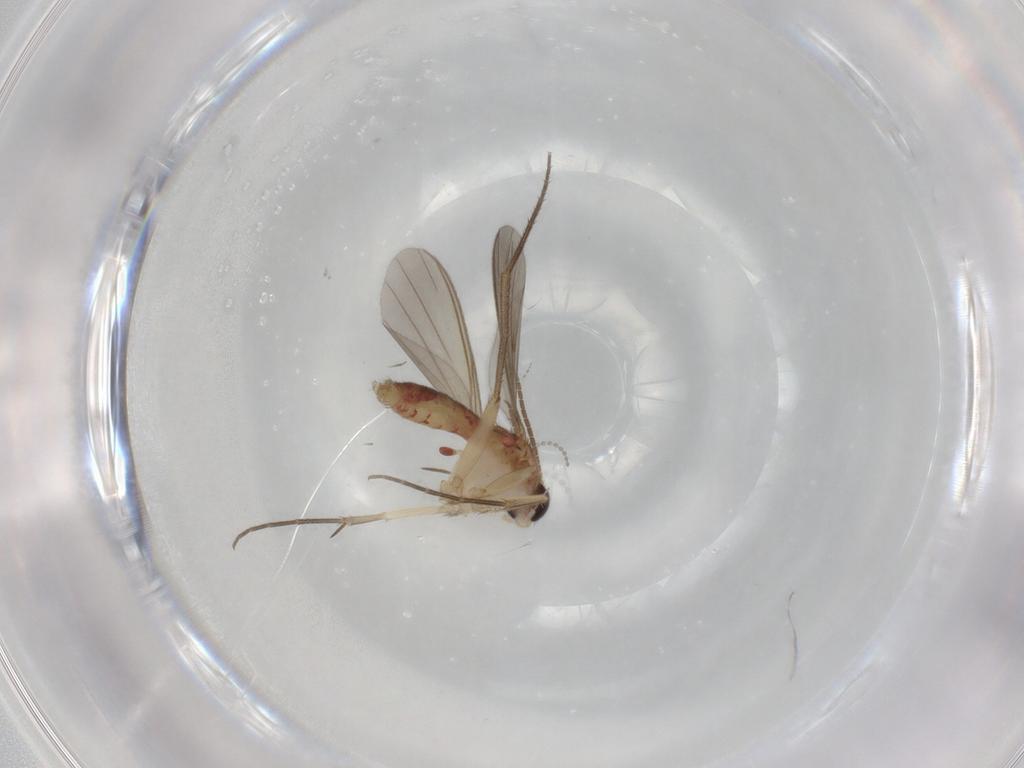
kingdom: Animalia
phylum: Arthropoda
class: Insecta
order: Diptera
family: Mycetophilidae
